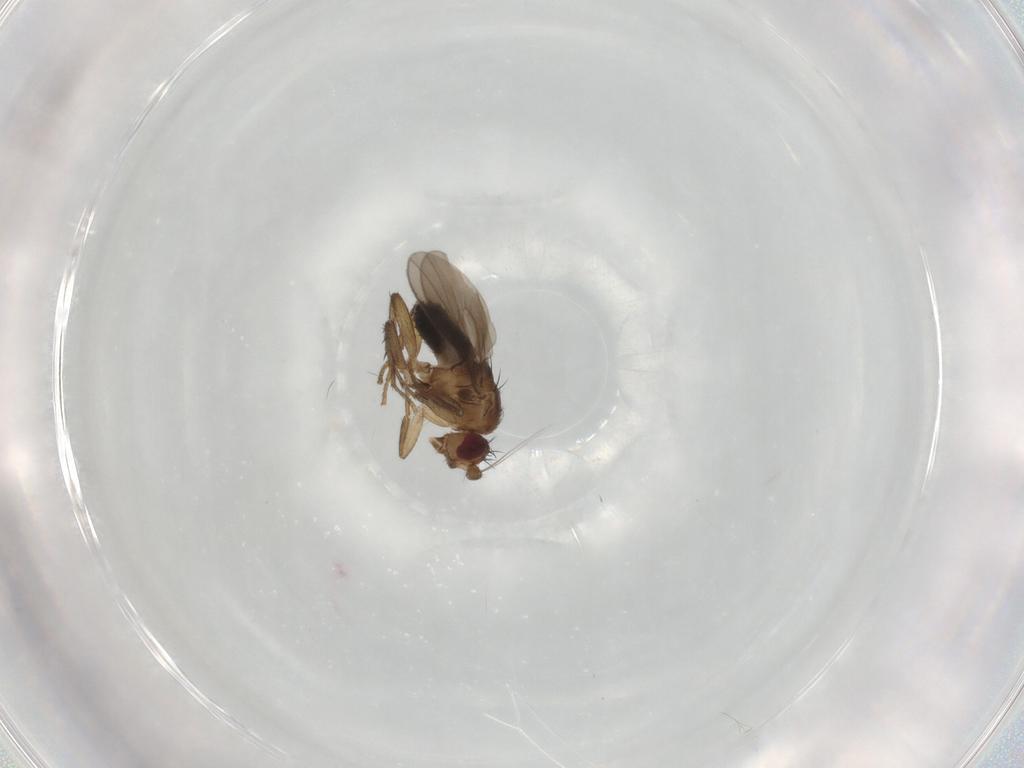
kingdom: Animalia
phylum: Arthropoda
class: Insecta
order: Diptera
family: Sphaeroceridae
